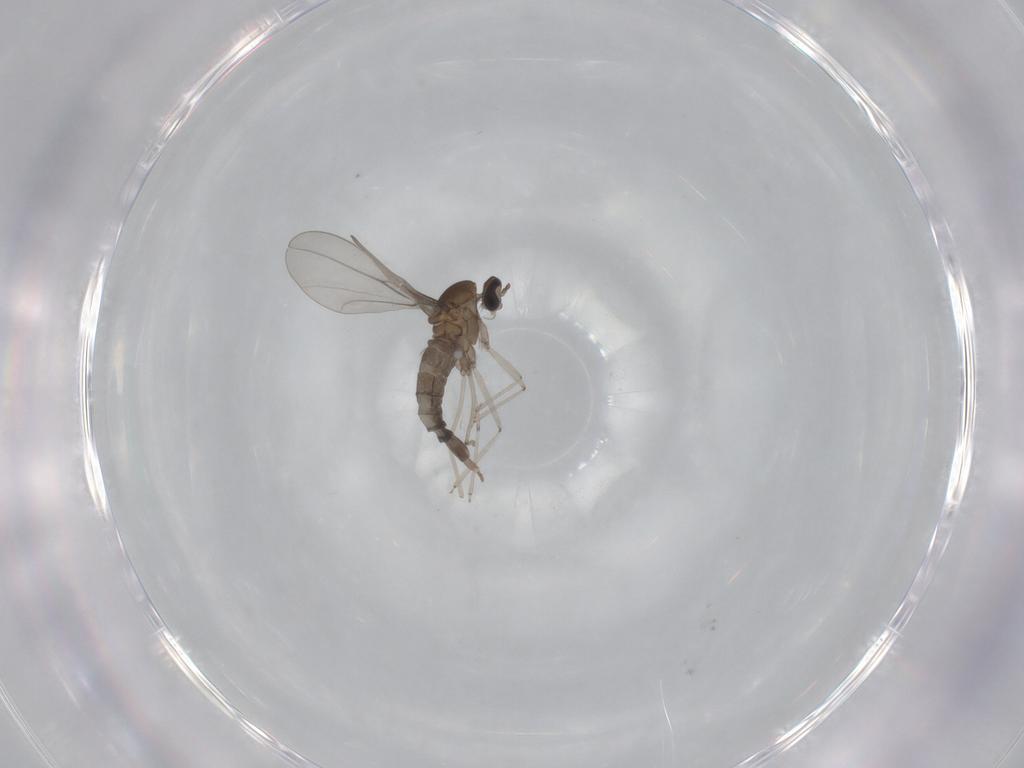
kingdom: Animalia
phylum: Arthropoda
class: Insecta
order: Diptera
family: Cecidomyiidae
